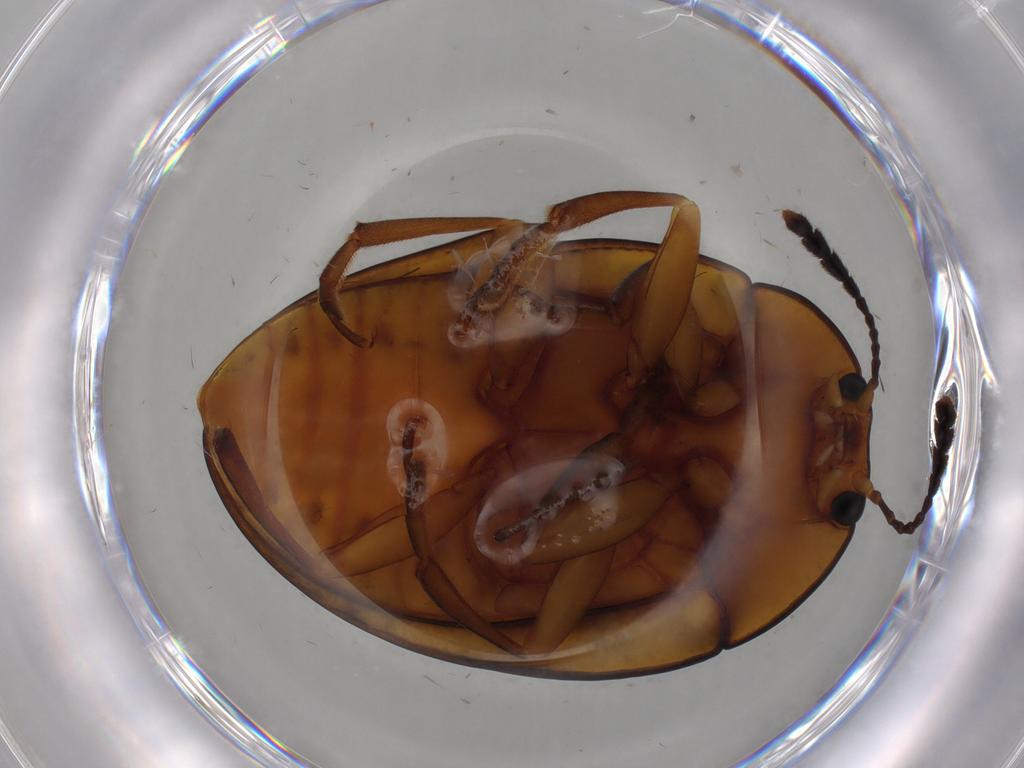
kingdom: Animalia
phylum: Arthropoda
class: Insecta
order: Coleoptera
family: Erotylidae
